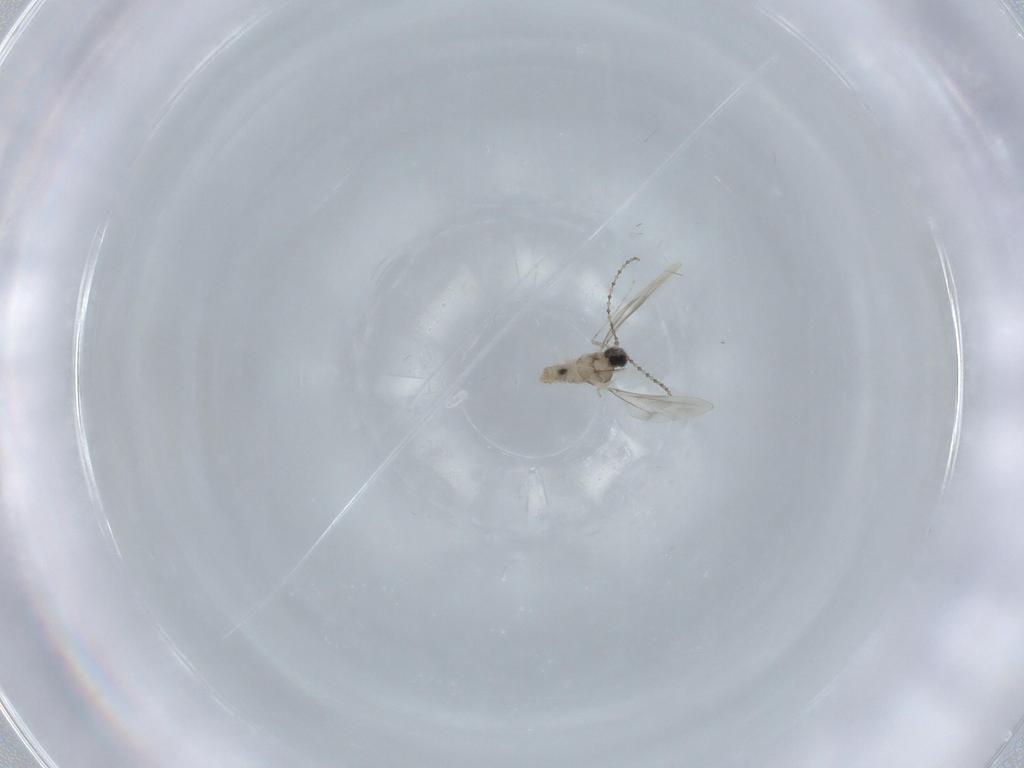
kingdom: Animalia
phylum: Arthropoda
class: Insecta
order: Diptera
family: Cecidomyiidae
